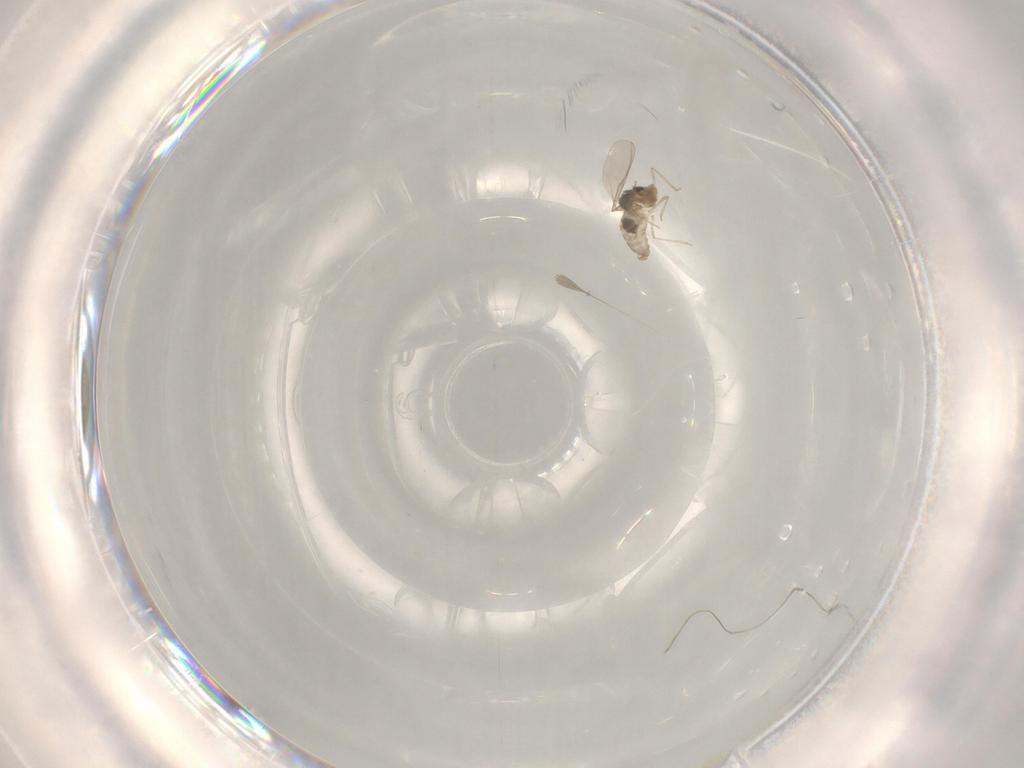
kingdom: Animalia
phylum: Arthropoda
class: Insecta
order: Diptera
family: Cecidomyiidae
